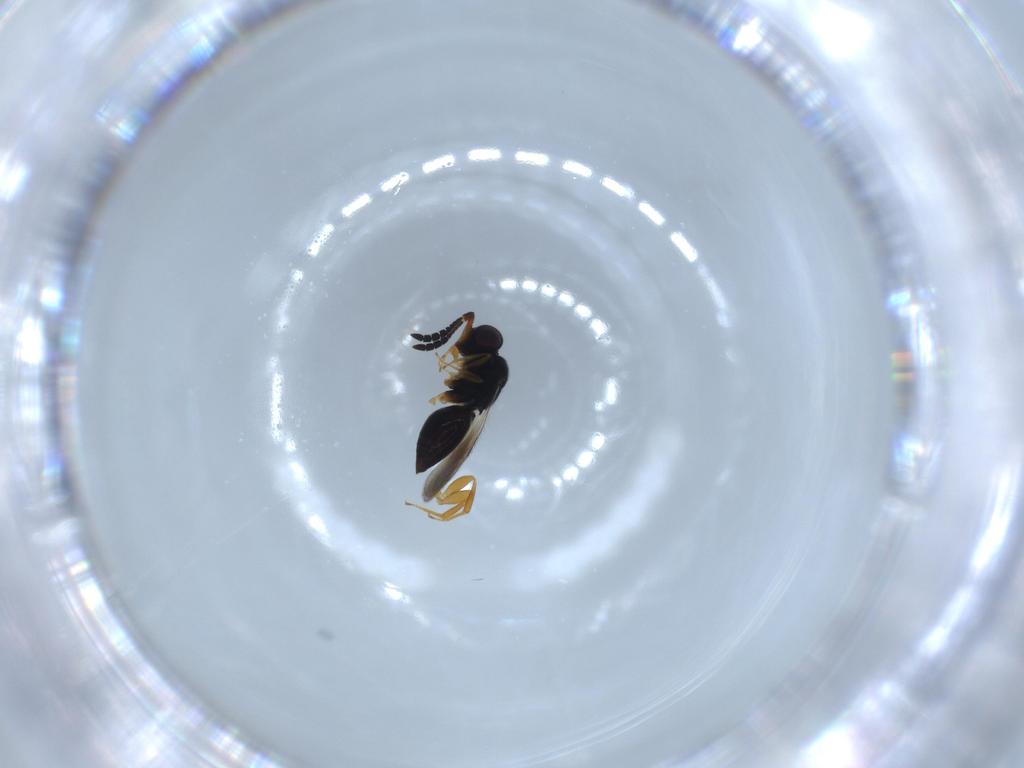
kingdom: Animalia
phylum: Arthropoda
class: Insecta
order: Hymenoptera
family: Ceraphronidae
